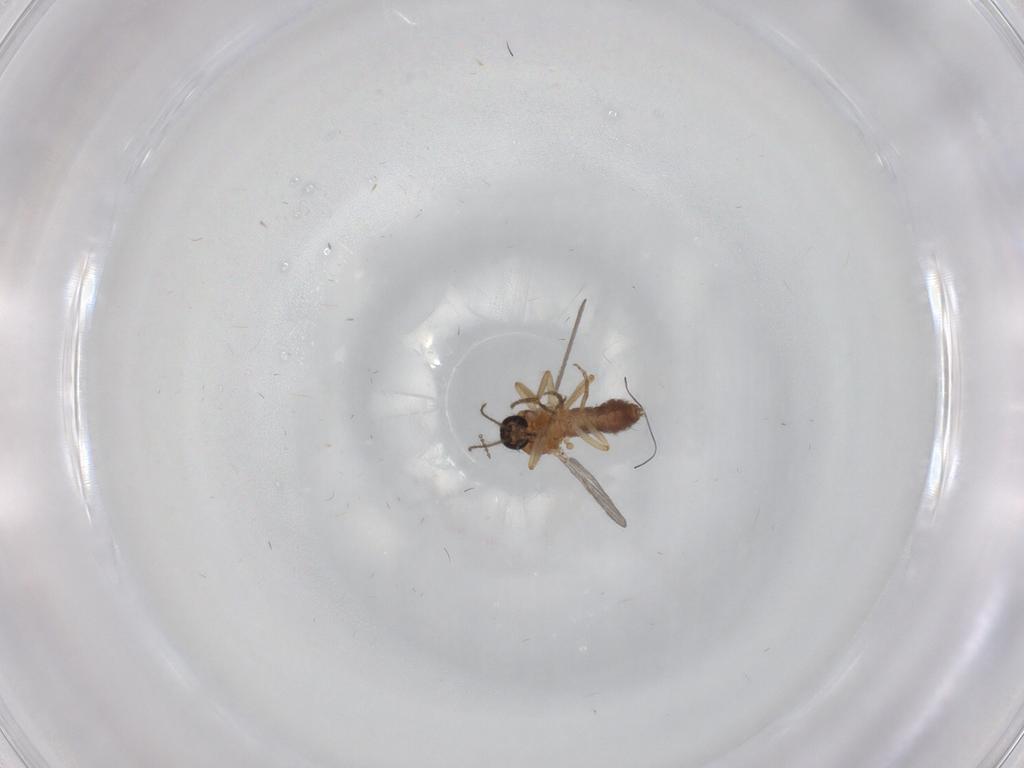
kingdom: Animalia
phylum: Arthropoda
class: Insecta
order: Diptera
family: Ceratopogonidae
